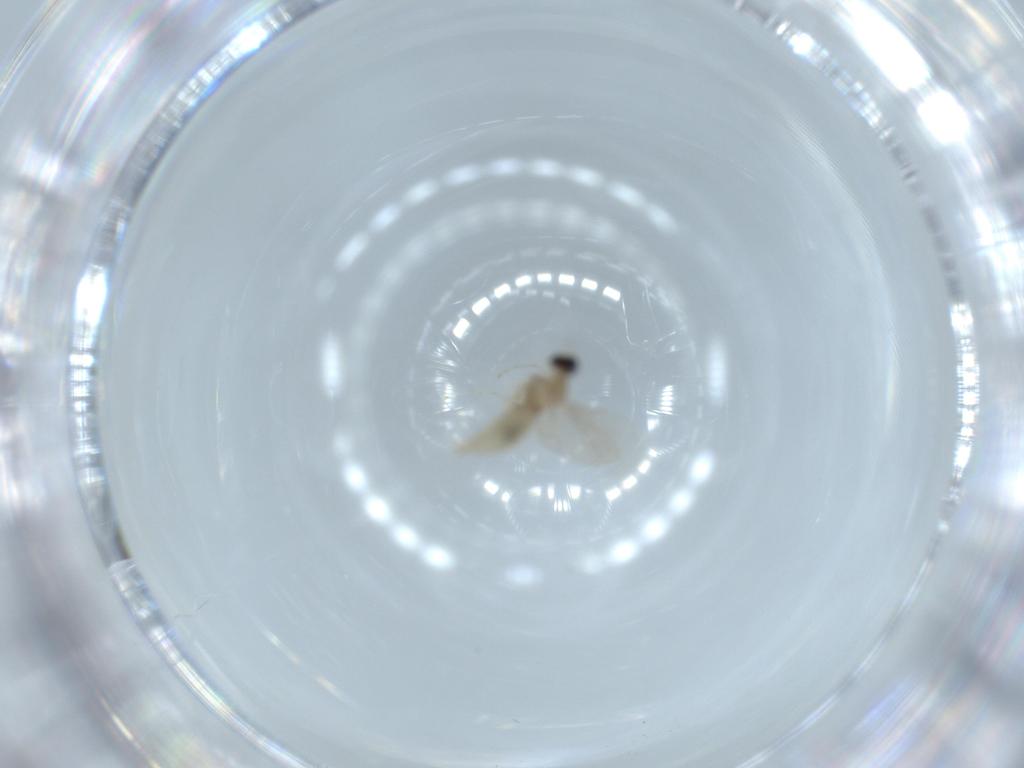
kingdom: Animalia
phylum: Arthropoda
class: Insecta
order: Diptera
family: Cecidomyiidae
